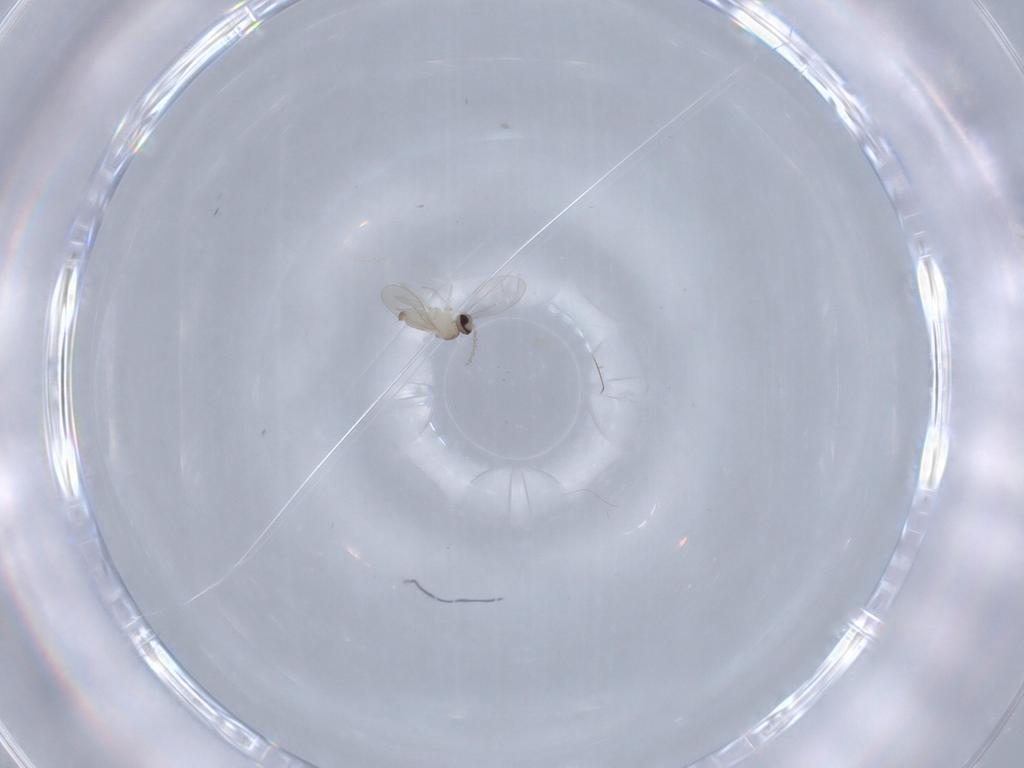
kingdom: Animalia
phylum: Arthropoda
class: Insecta
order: Diptera
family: Cecidomyiidae
